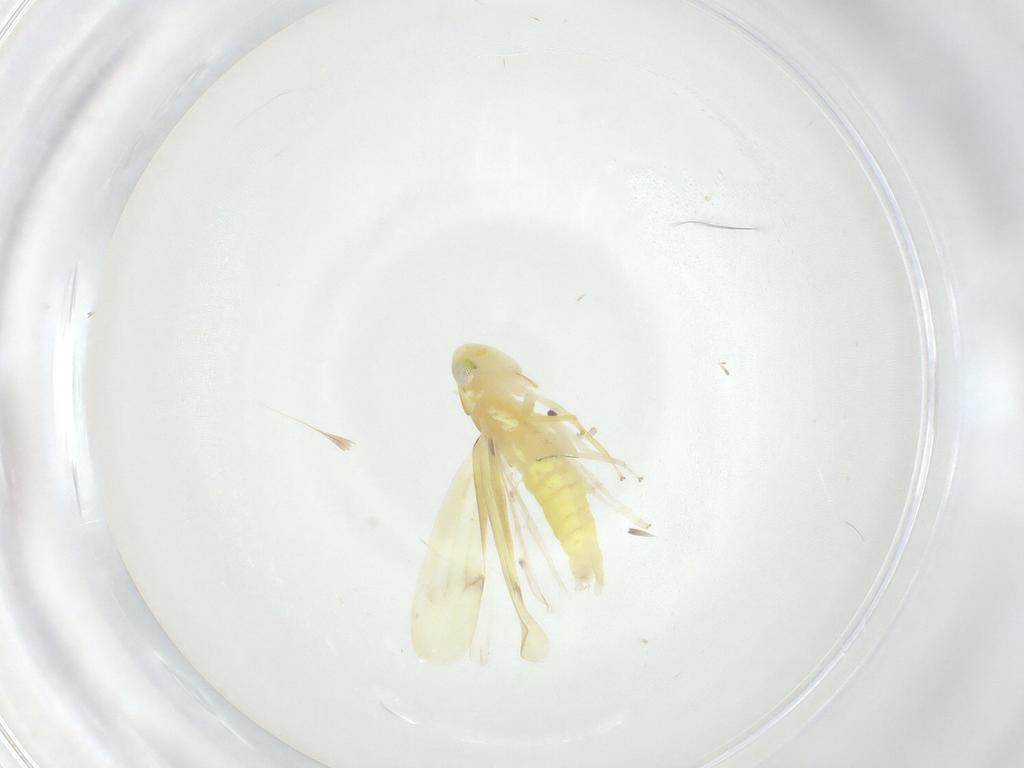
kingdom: Animalia
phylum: Arthropoda
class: Insecta
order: Hemiptera
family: Cicadellidae
